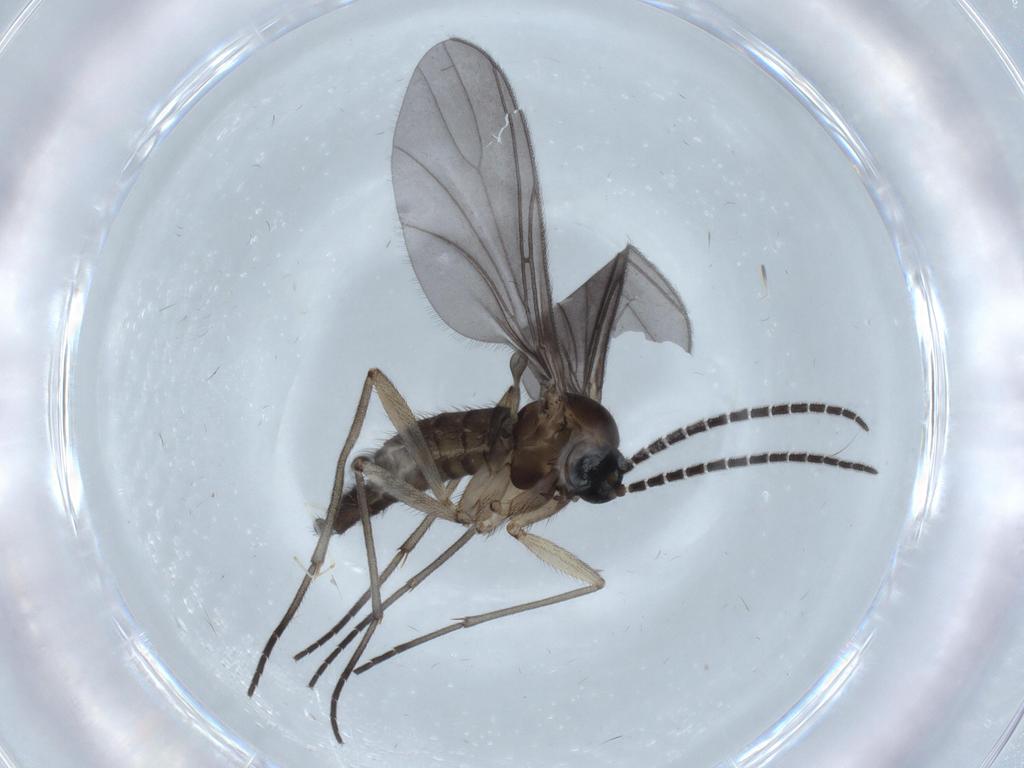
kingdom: Animalia
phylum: Arthropoda
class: Insecta
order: Diptera
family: Sciaridae
